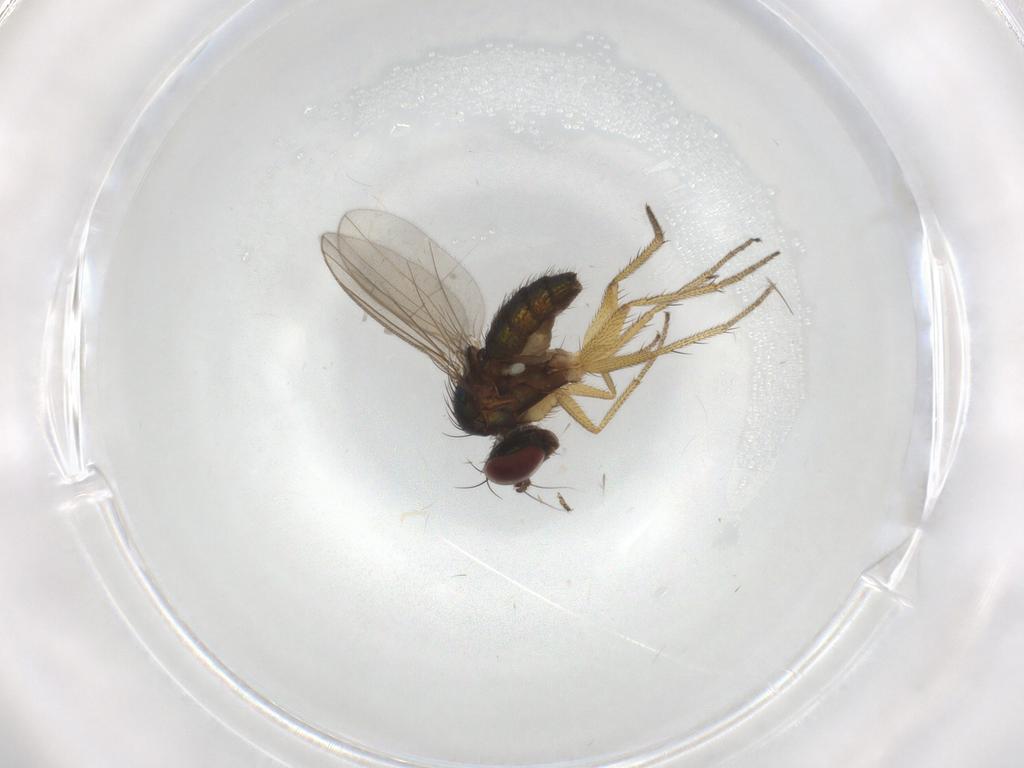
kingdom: Animalia
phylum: Arthropoda
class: Insecta
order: Diptera
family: Dolichopodidae
